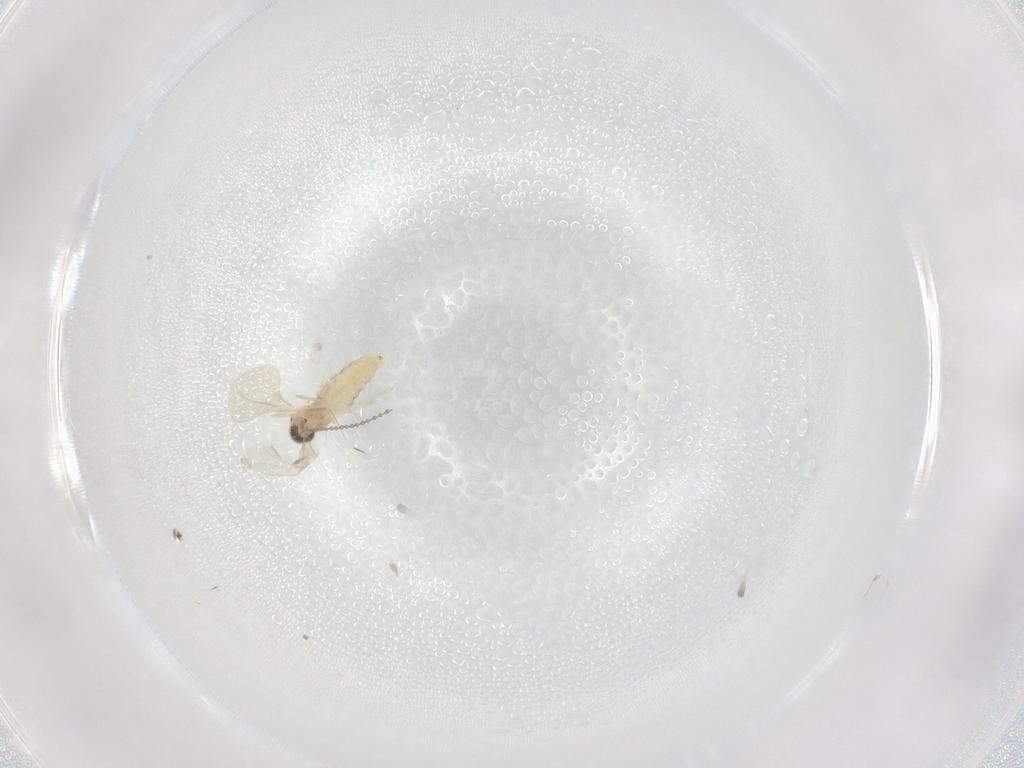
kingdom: Animalia
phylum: Arthropoda
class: Insecta
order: Diptera
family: Cecidomyiidae
